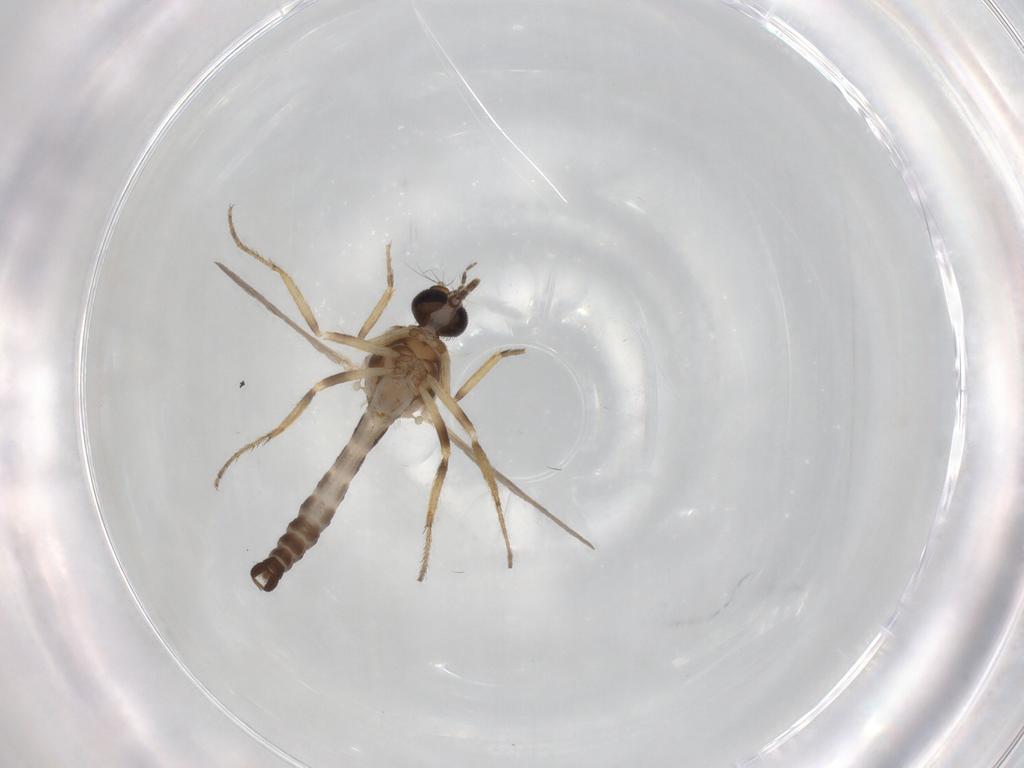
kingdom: Animalia
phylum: Arthropoda
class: Insecta
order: Diptera
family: Ceratopogonidae
